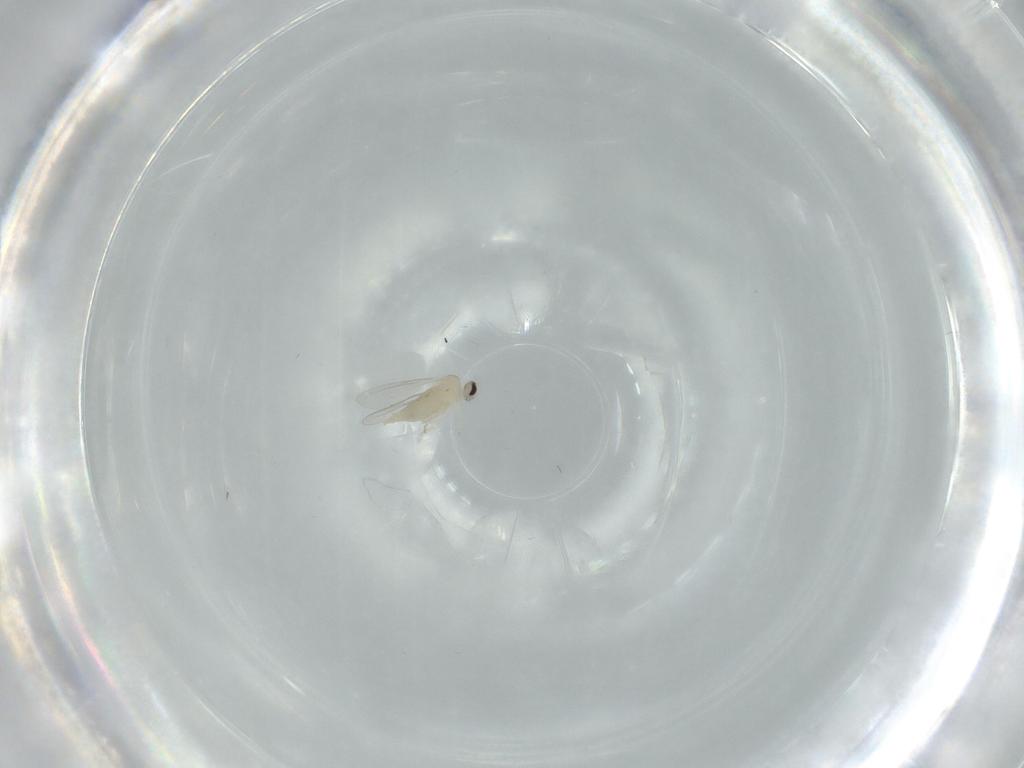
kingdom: Animalia
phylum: Arthropoda
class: Insecta
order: Diptera
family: Cecidomyiidae
